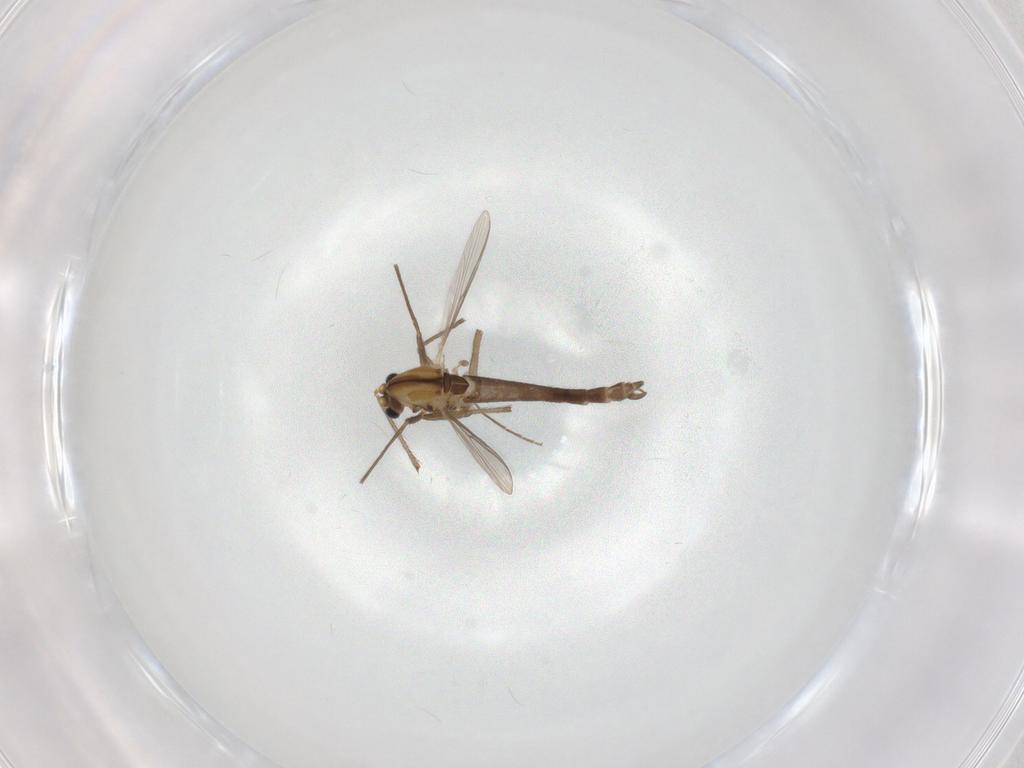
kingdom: Animalia
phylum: Arthropoda
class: Insecta
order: Diptera
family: Chironomidae
